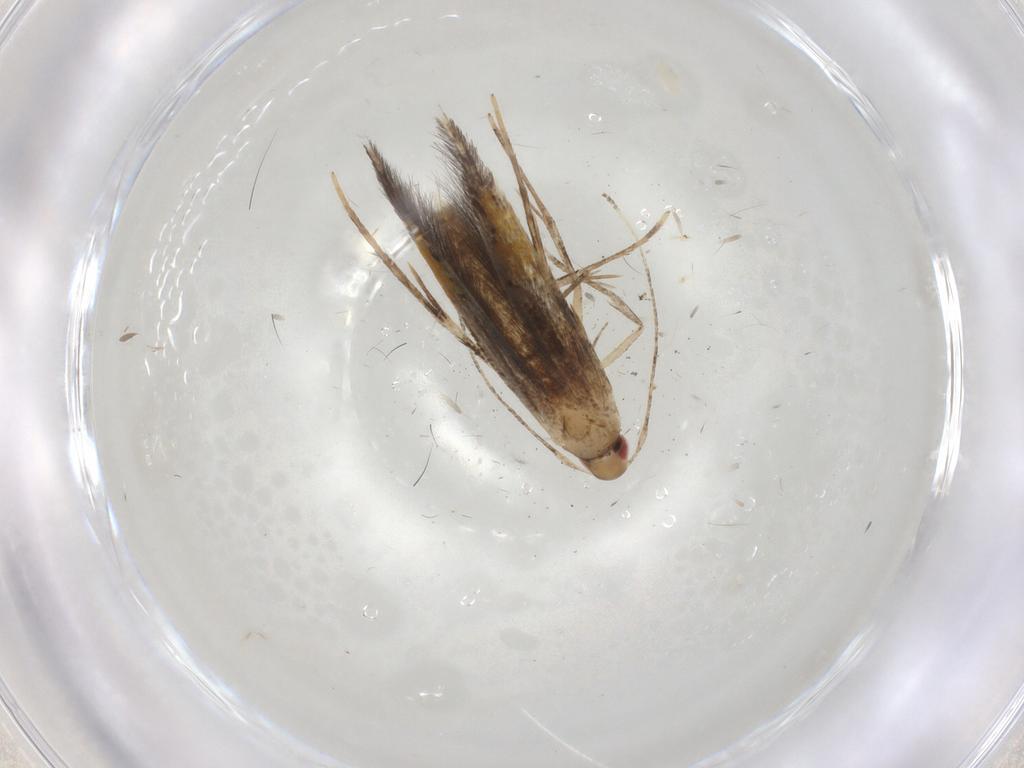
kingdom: Animalia
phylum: Arthropoda
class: Insecta
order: Lepidoptera
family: Cosmopterigidae
